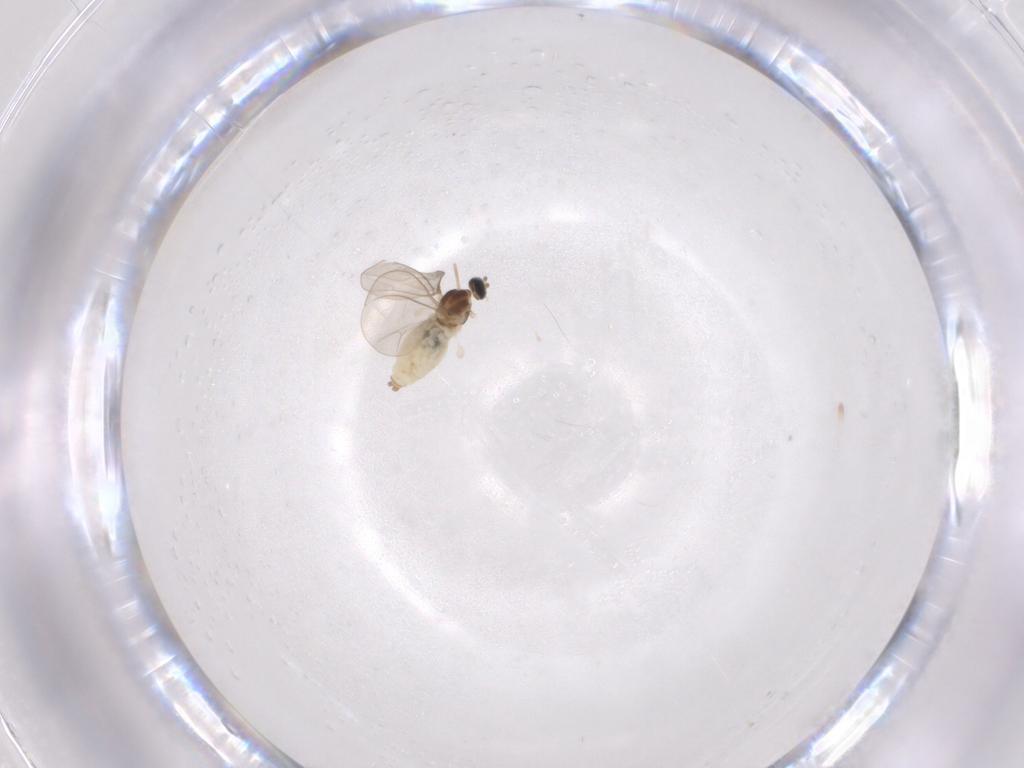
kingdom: Animalia
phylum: Arthropoda
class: Insecta
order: Diptera
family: Cecidomyiidae
